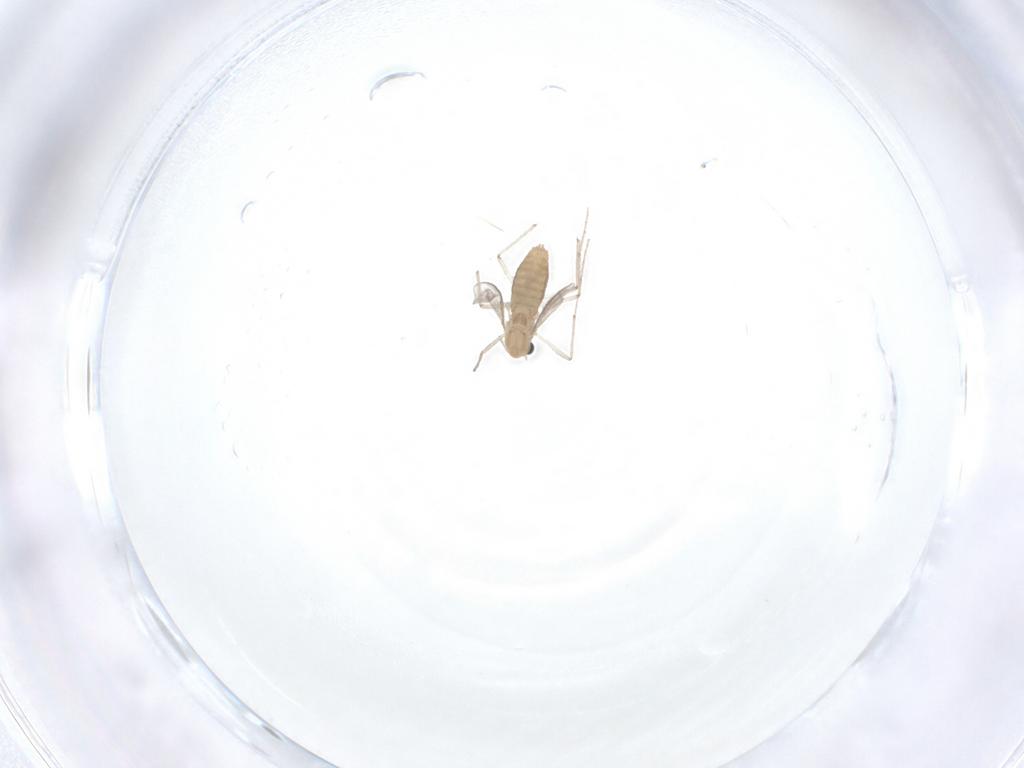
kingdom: Animalia
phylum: Arthropoda
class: Insecta
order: Diptera
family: Chironomidae
